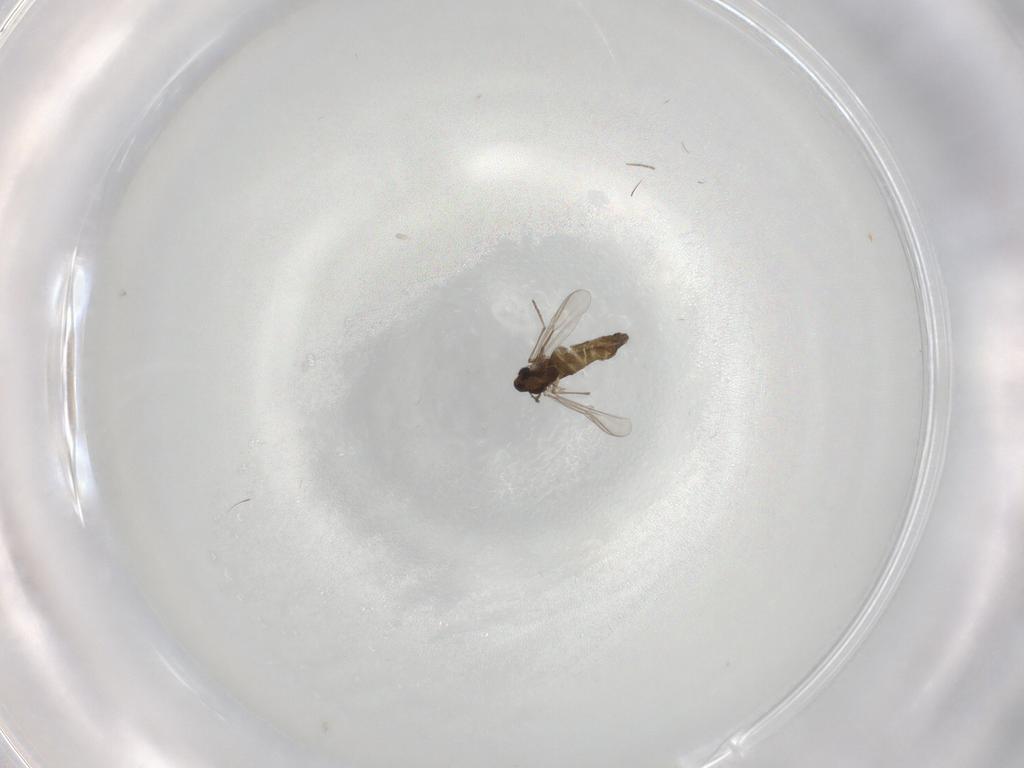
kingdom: Animalia
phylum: Arthropoda
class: Insecta
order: Diptera
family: Chironomidae
